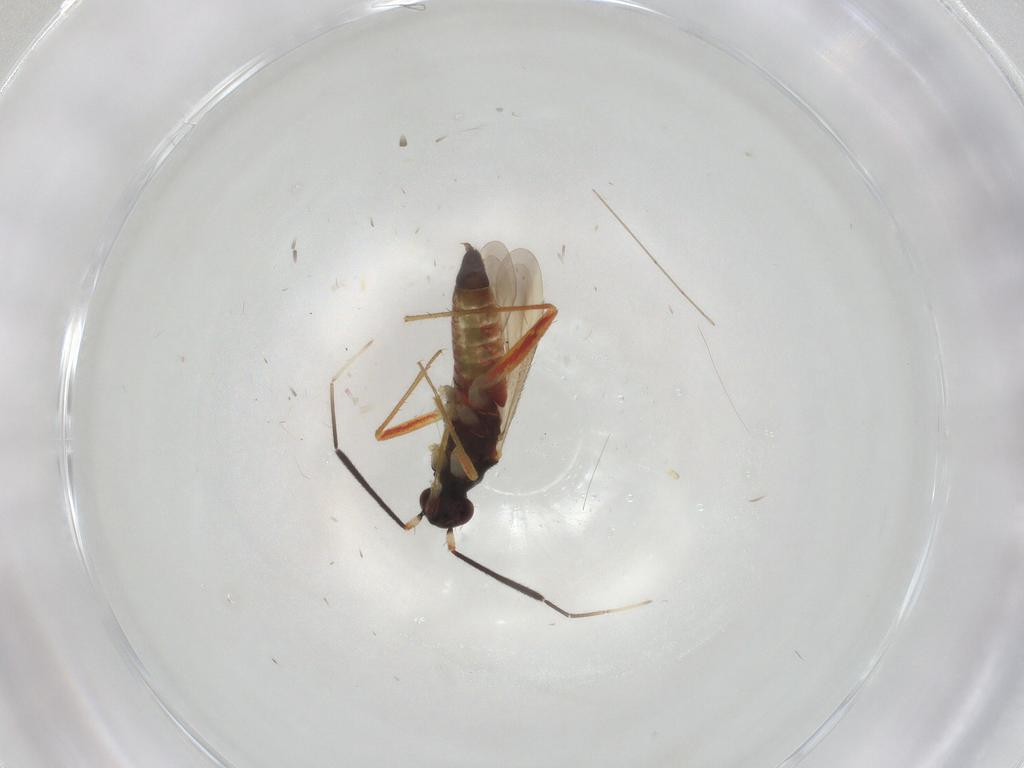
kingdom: Animalia
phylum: Arthropoda
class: Insecta
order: Hemiptera
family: Miridae
